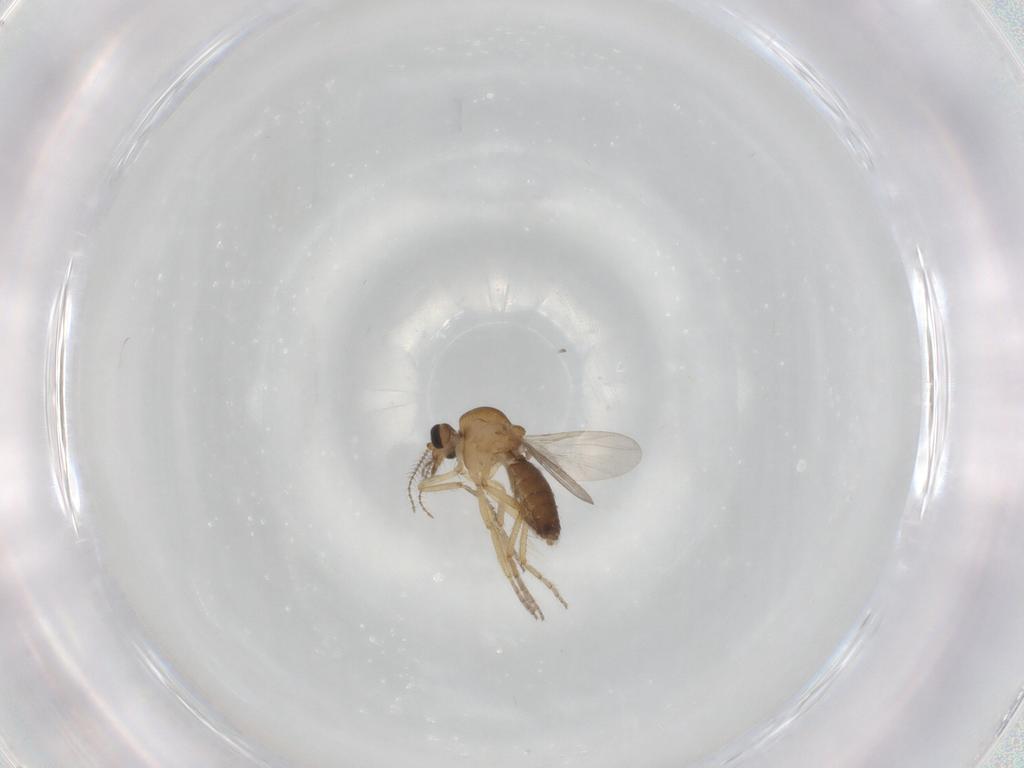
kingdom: Animalia
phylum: Arthropoda
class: Insecta
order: Diptera
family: Ceratopogonidae
